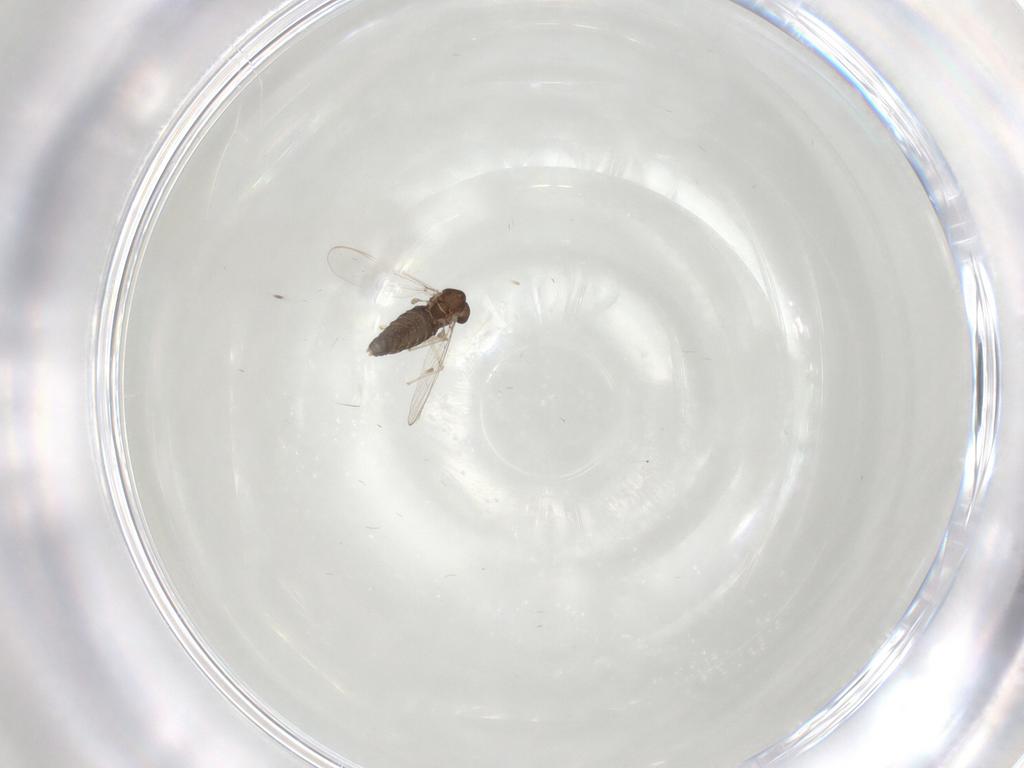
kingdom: Animalia
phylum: Arthropoda
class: Insecta
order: Diptera
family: Chironomidae
